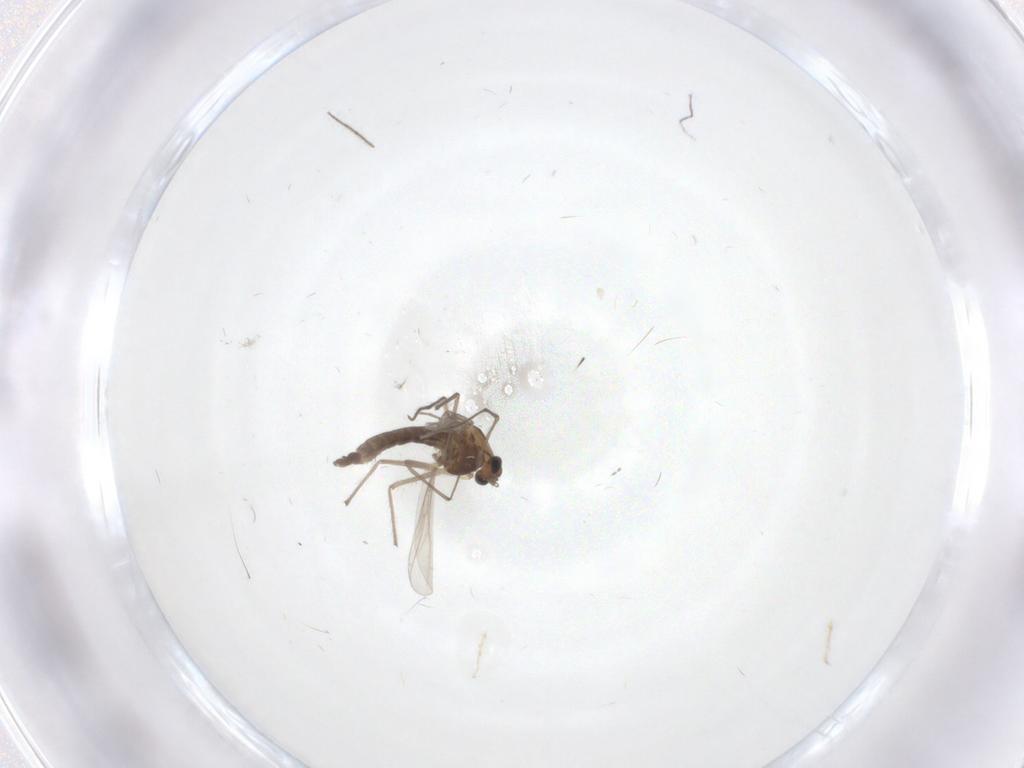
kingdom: Animalia
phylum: Arthropoda
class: Insecta
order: Diptera
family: Chironomidae
